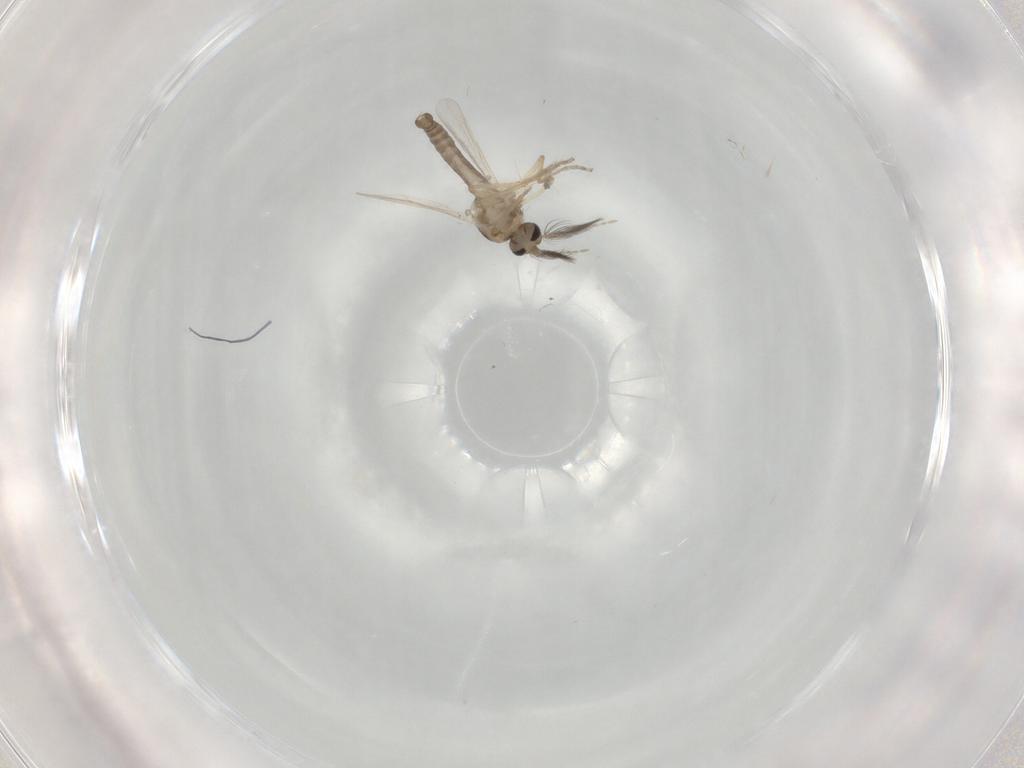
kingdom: Animalia
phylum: Arthropoda
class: Insecta
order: Diptera
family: Ceratopogonidae
